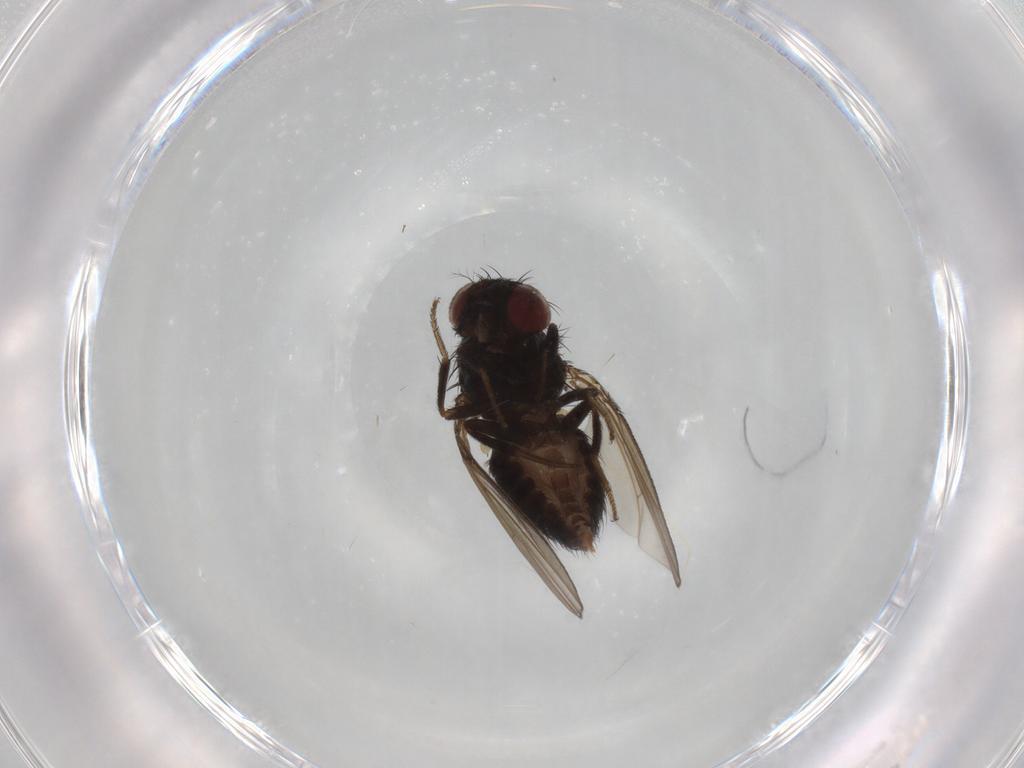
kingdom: Animalia
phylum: Arthropoda
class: Insecta
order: Diptera
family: Drosophilidae
